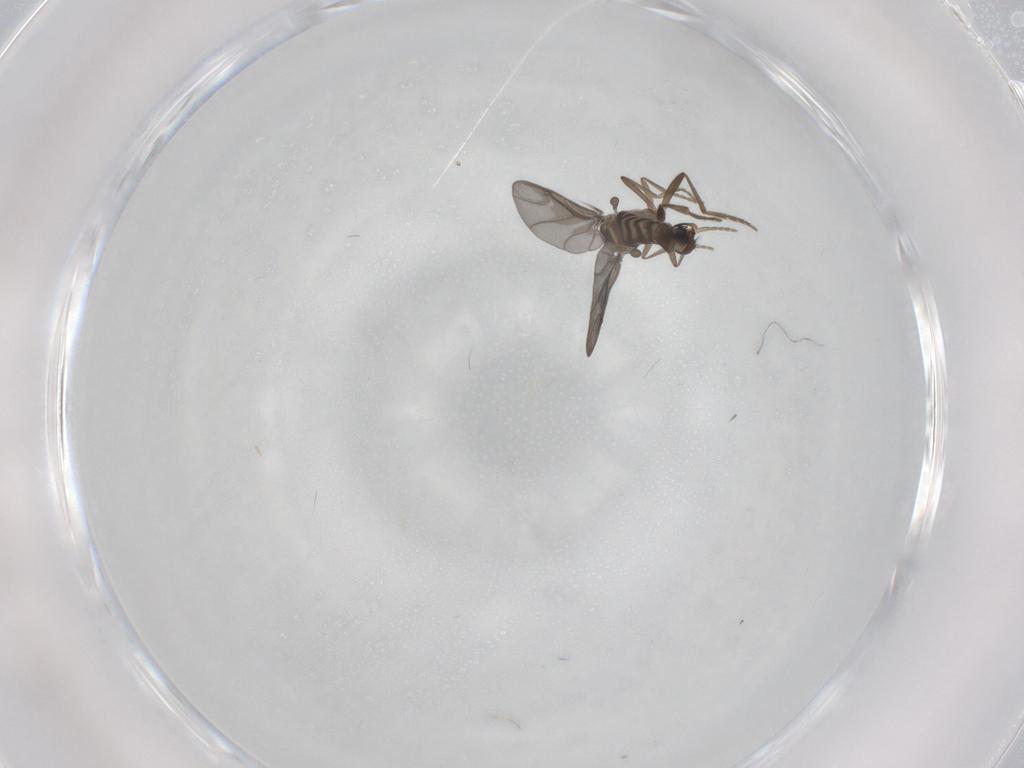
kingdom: Animalia
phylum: Arthropoda
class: Insecta
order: Diptera
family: Phoridae
